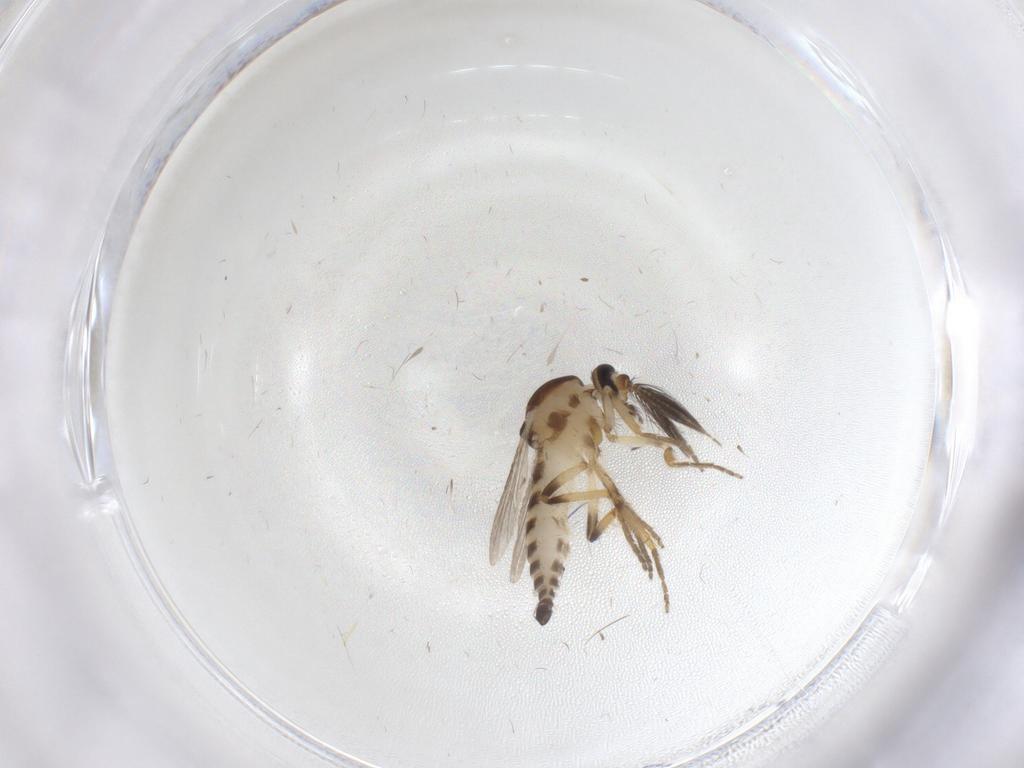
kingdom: Animalia
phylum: Arthropoda
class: Insecta
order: Diptera
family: Sciaridae
